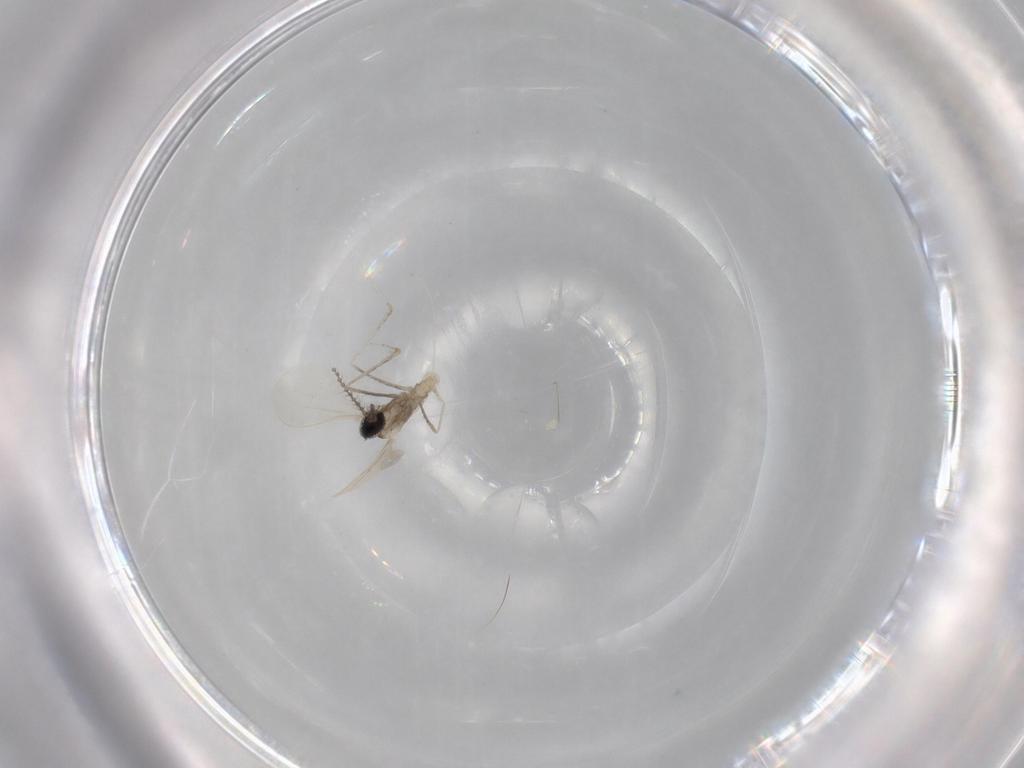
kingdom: Animalia
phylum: Arthropoda
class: Insecta
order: Diptera
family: Cecidomyiidae
